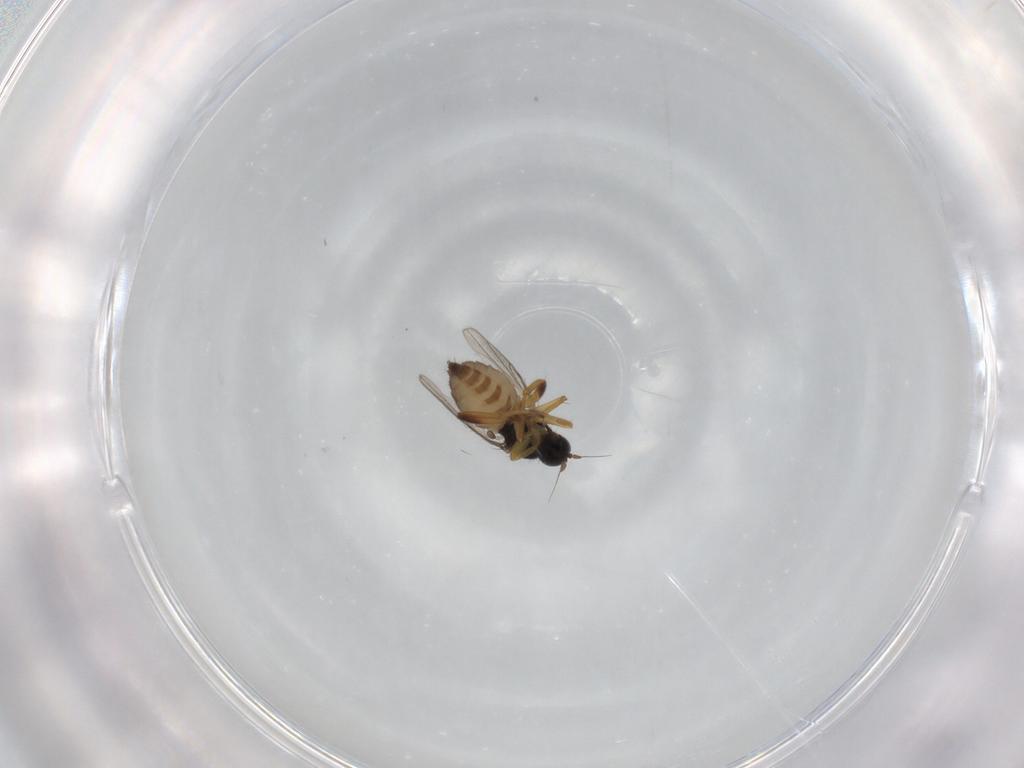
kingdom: Animalia
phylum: Arthropoda
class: Insecta
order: Diptera
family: Hybotidae
